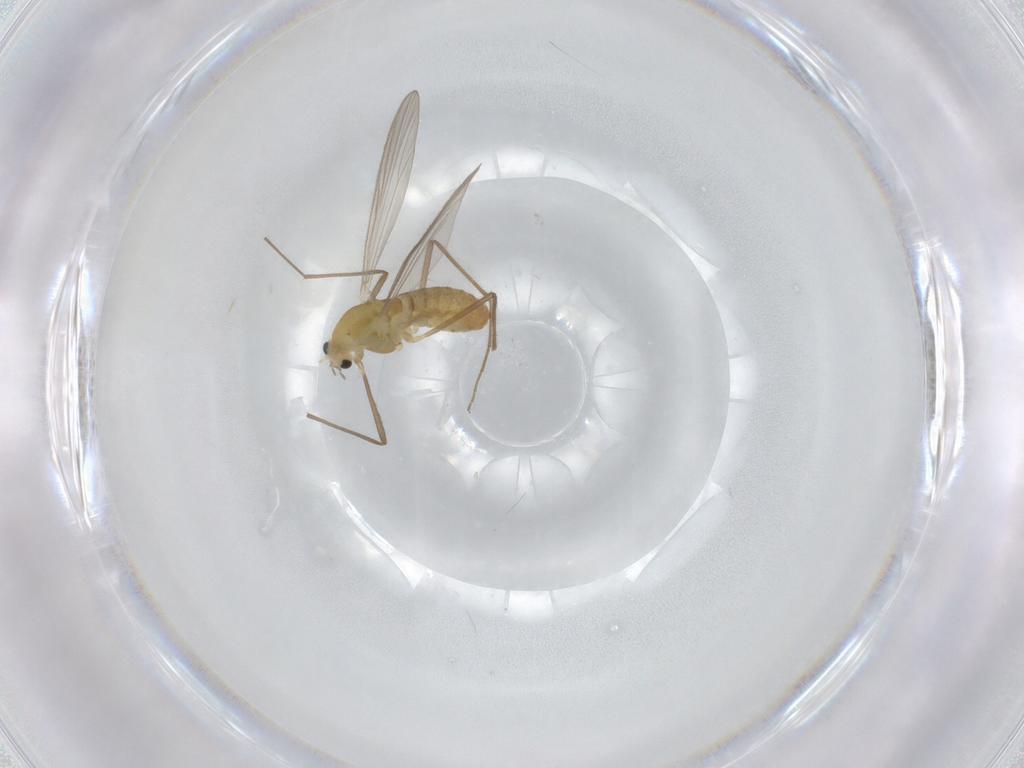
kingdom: Animalia
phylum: Arthropoda
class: Insecta
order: Diptera
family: Chironomidae
